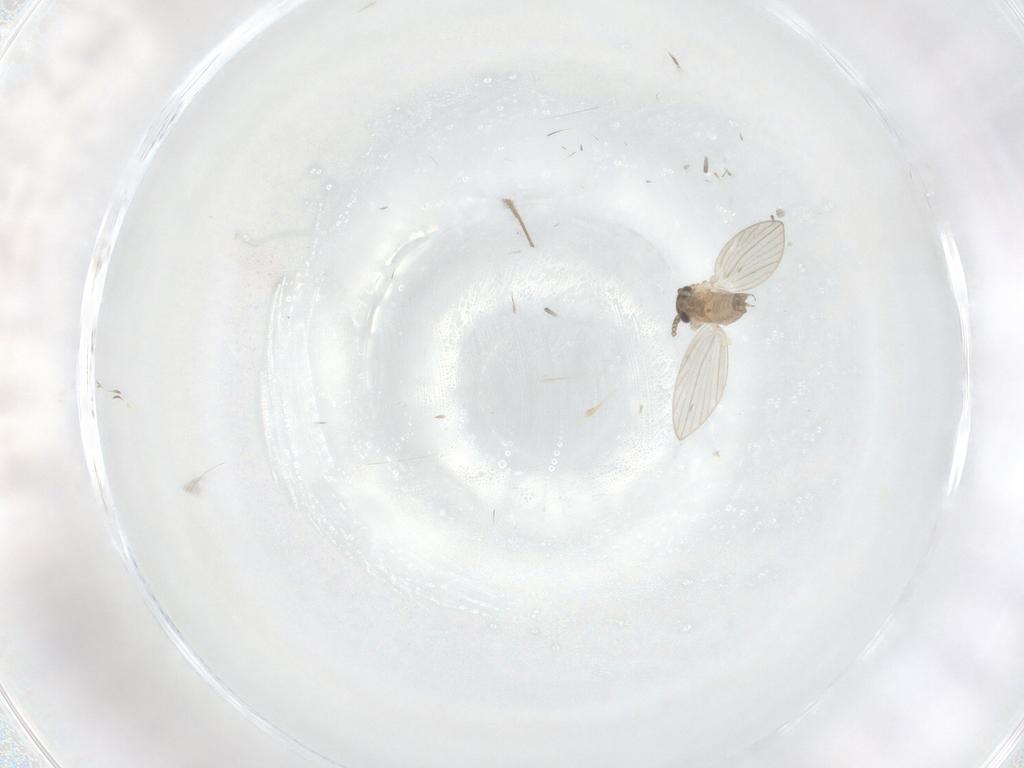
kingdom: Animalia
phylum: Arthropoda
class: Insecta
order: Diptera
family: Psychodidae
